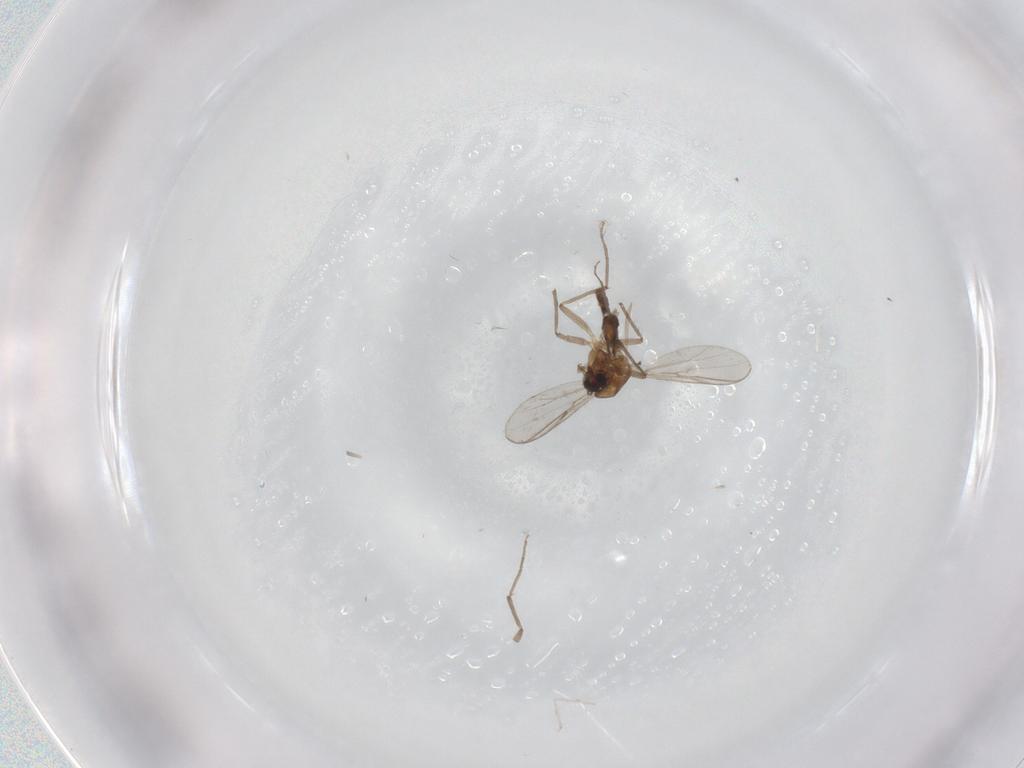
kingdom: Animalia
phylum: Arthropoda
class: Insecta
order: Diptera
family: Chironomidae
